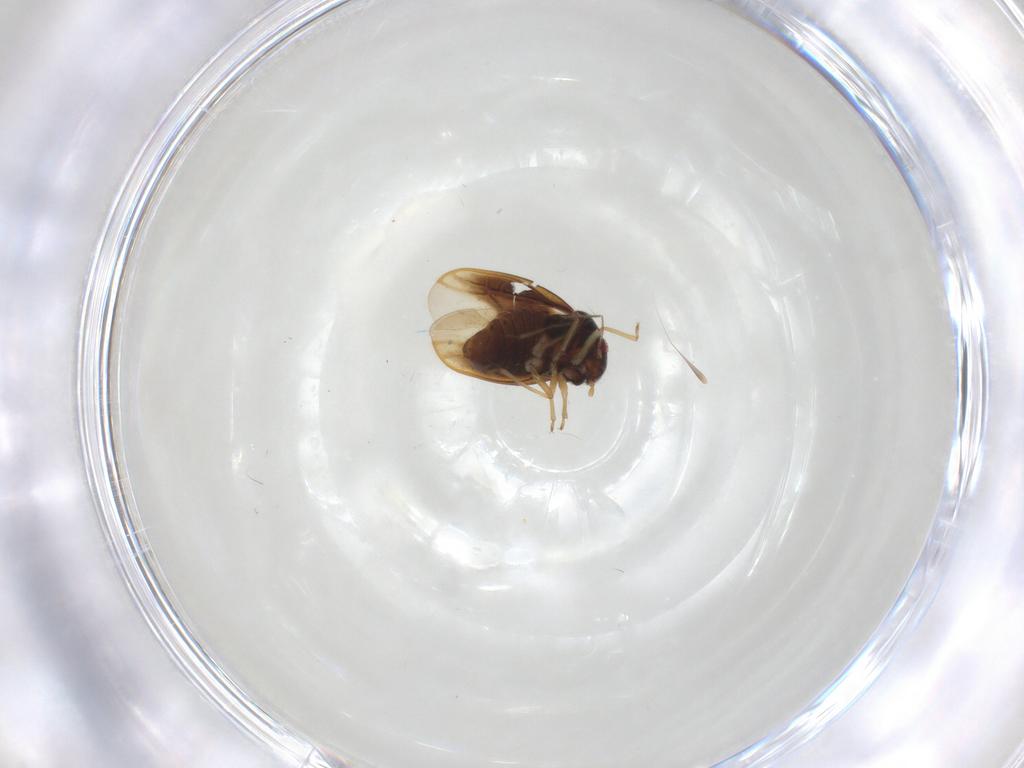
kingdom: Animalia
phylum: Arthropoda
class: Insecta
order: Hemiptera
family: Schizopteridae
